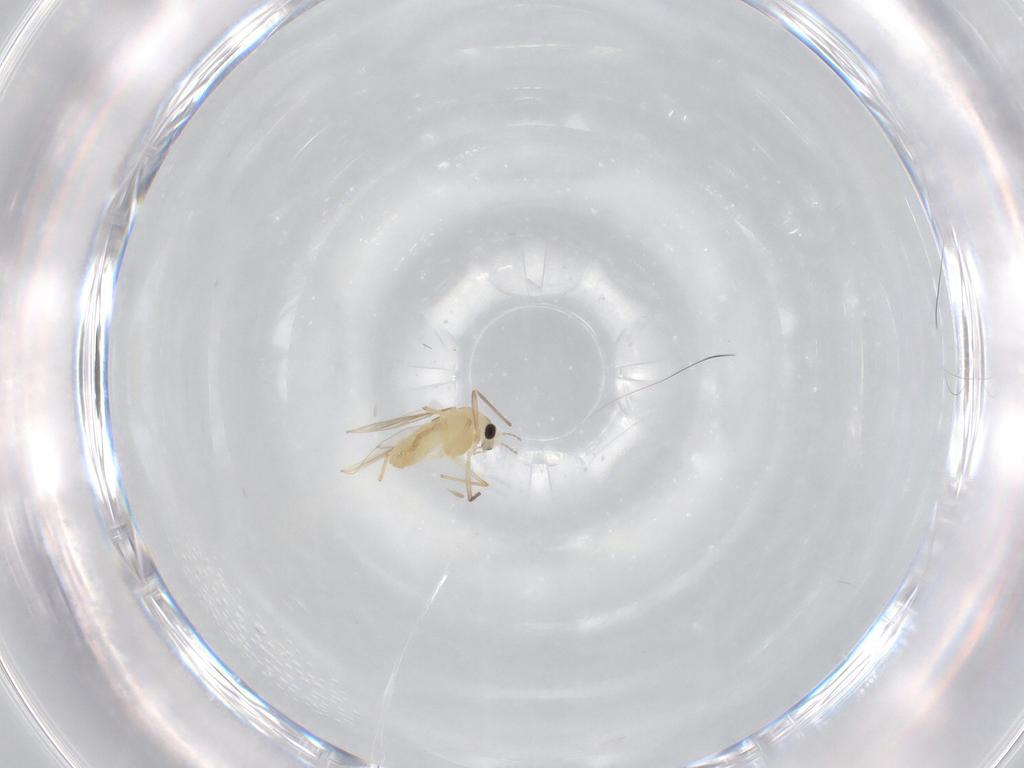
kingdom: Animalia
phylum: Arthropoda
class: Insecta
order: Diptera
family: Chironomidae
